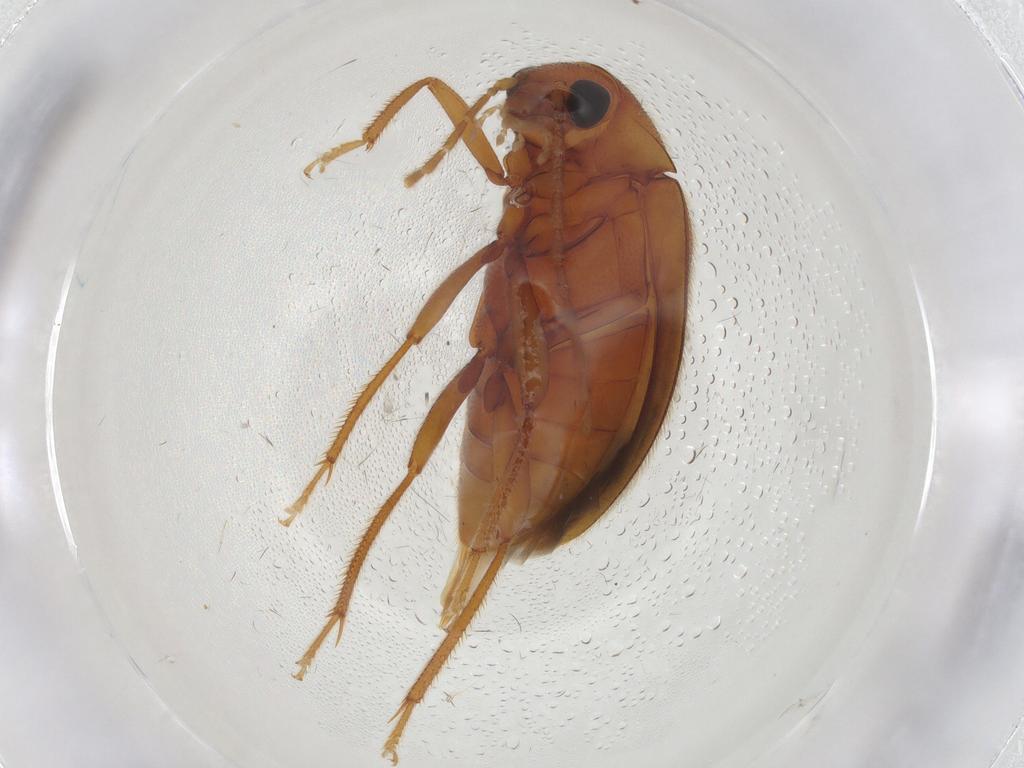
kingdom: Animalia
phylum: Arthropoda
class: Insecta
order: Coleoptera
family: Ptilodactylidae
